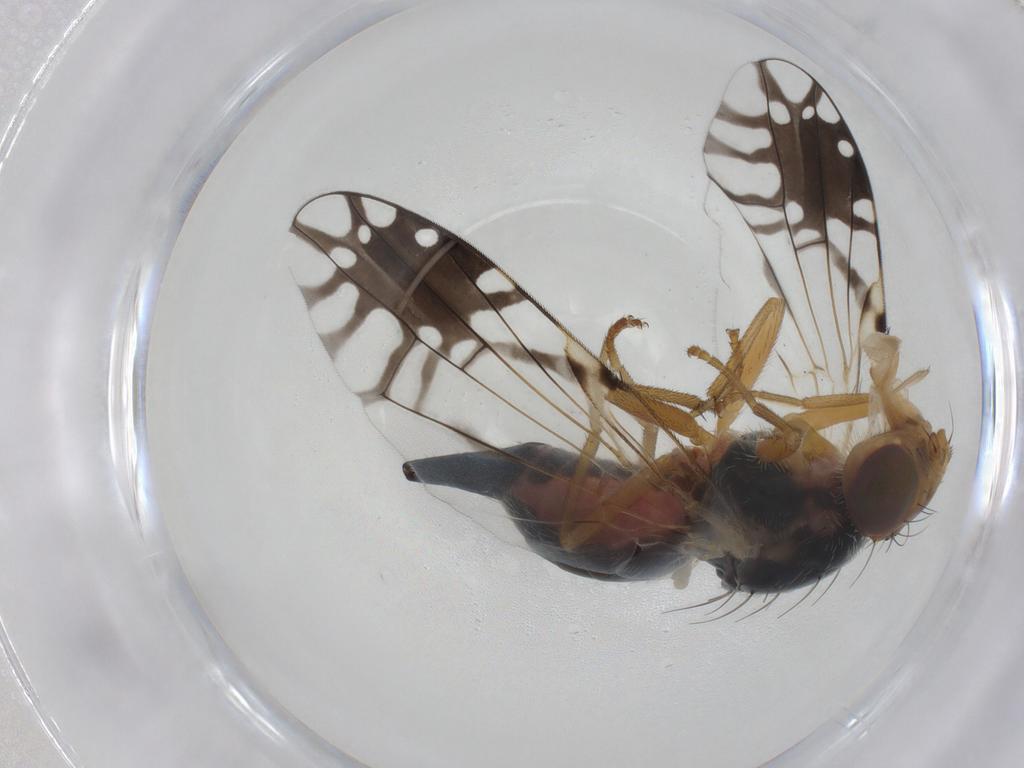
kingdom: Animalia
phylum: Arthropoda
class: Insecta
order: Diptera
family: Tephritidae
